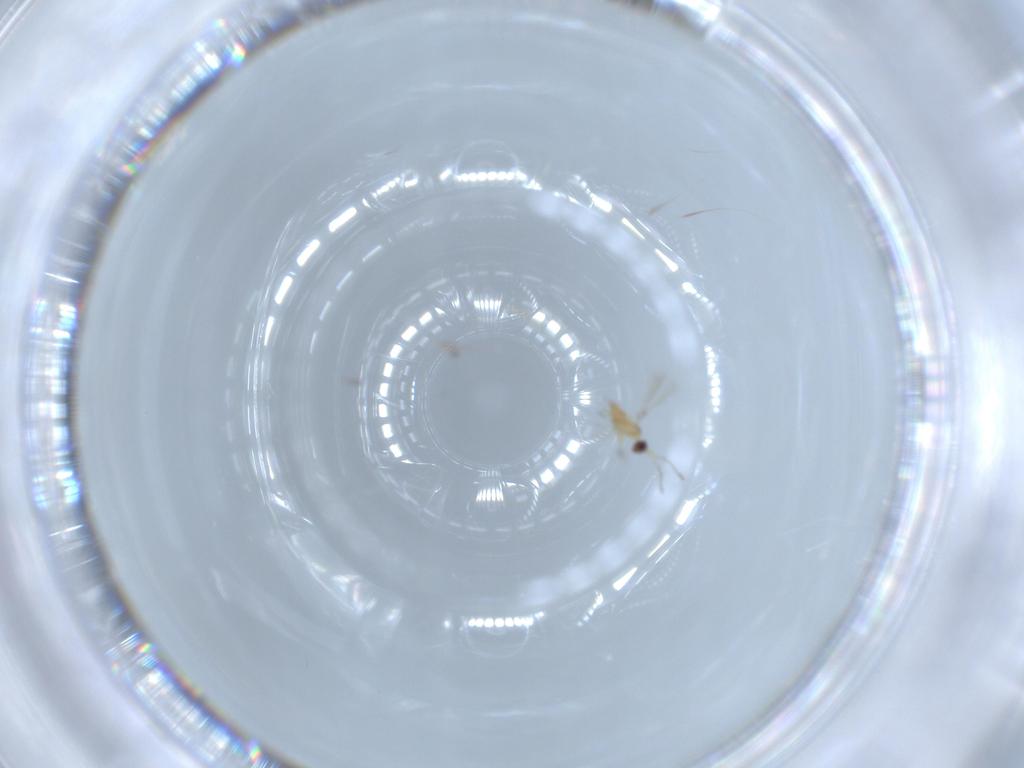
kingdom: Animalia
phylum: Arthropoda
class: Insecta
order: Hymenoptera
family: Mymaridae
